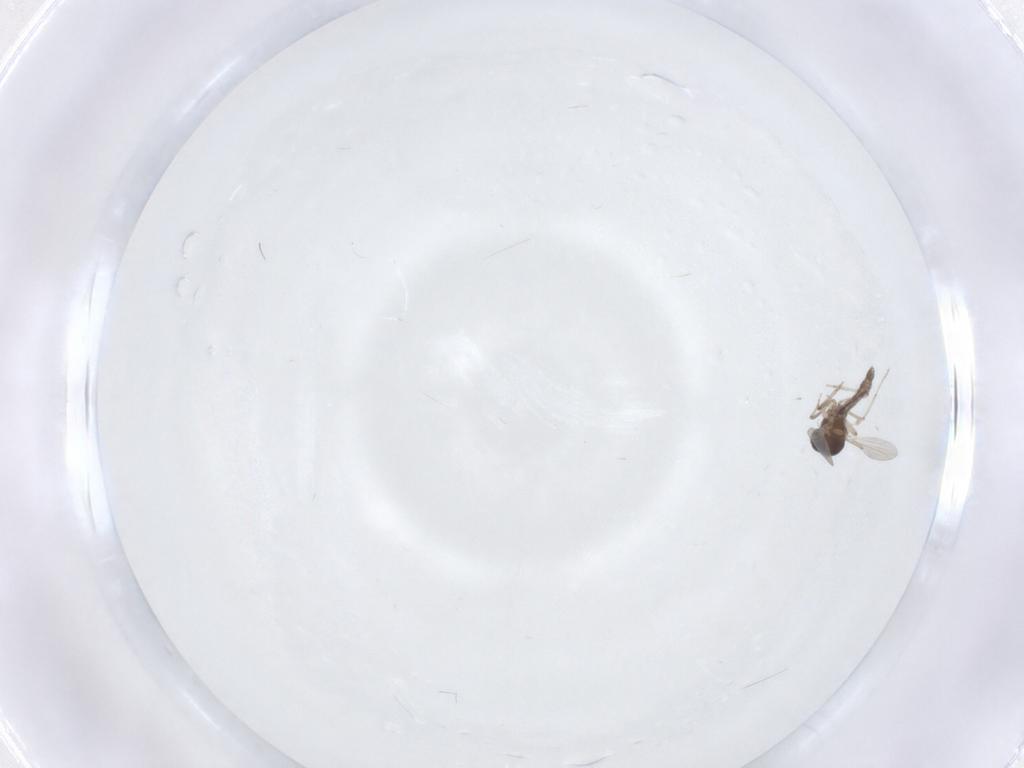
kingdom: Animalia
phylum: Arthropoda
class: Insecta
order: Diptera
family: Ceratopogonidae
